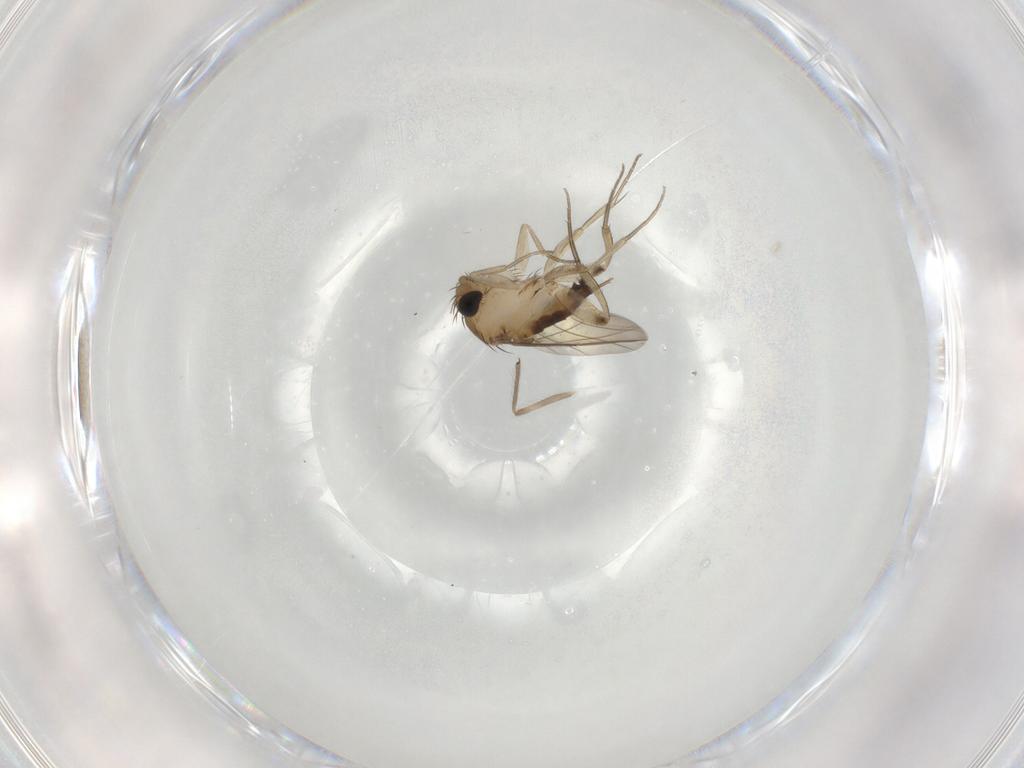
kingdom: Animalia
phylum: Arthropoda
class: Insecta
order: Diptera
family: Phoridae
